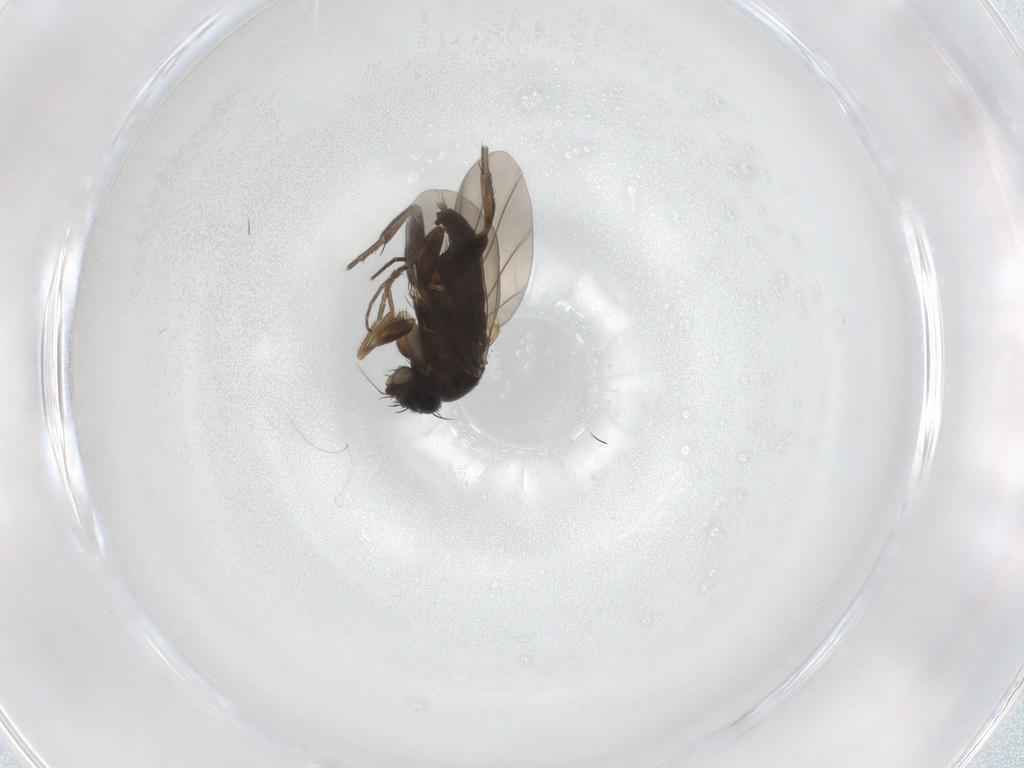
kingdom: Animalia
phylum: Arthropoda
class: Insecta
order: Diptera
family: Phoridae
